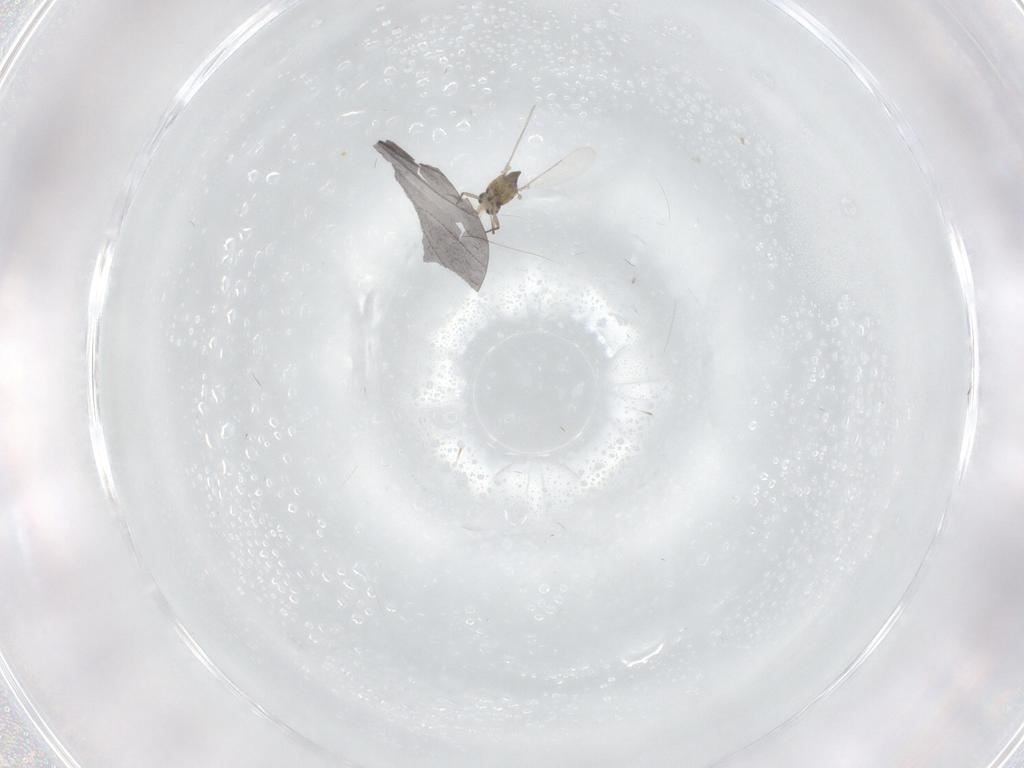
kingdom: Animalia
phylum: Arthropoda
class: Insecta
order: Diptera
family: Chironomidae
